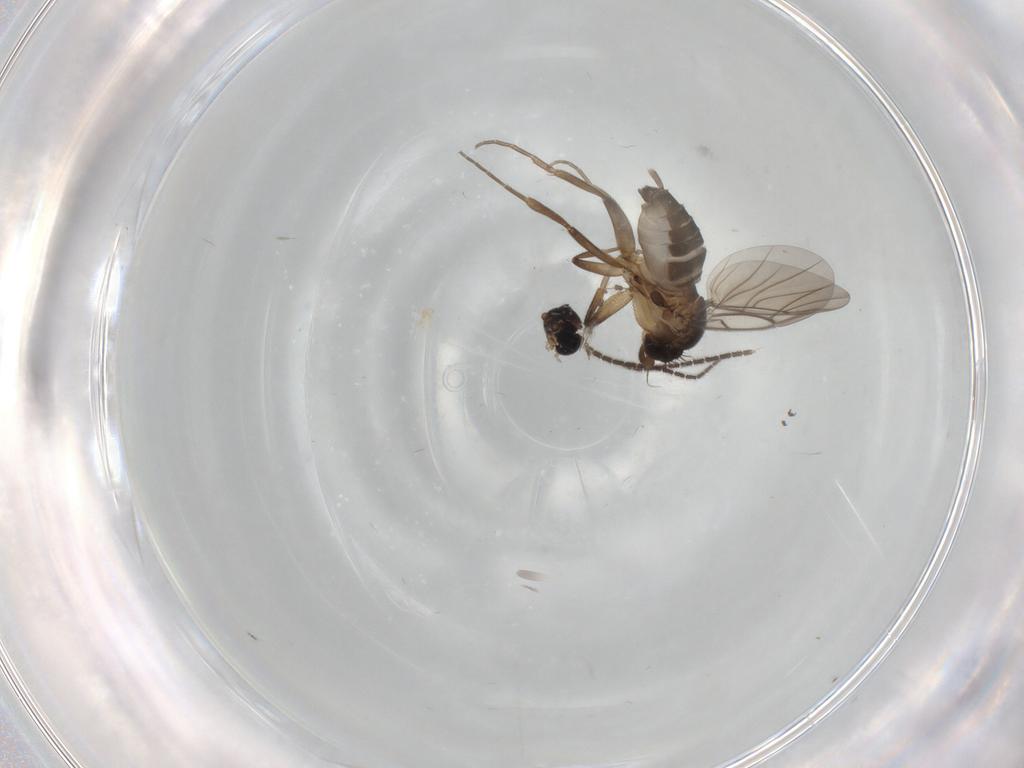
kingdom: Animalia
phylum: Arthropoda
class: Insecta
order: Diptera
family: Phoridae
